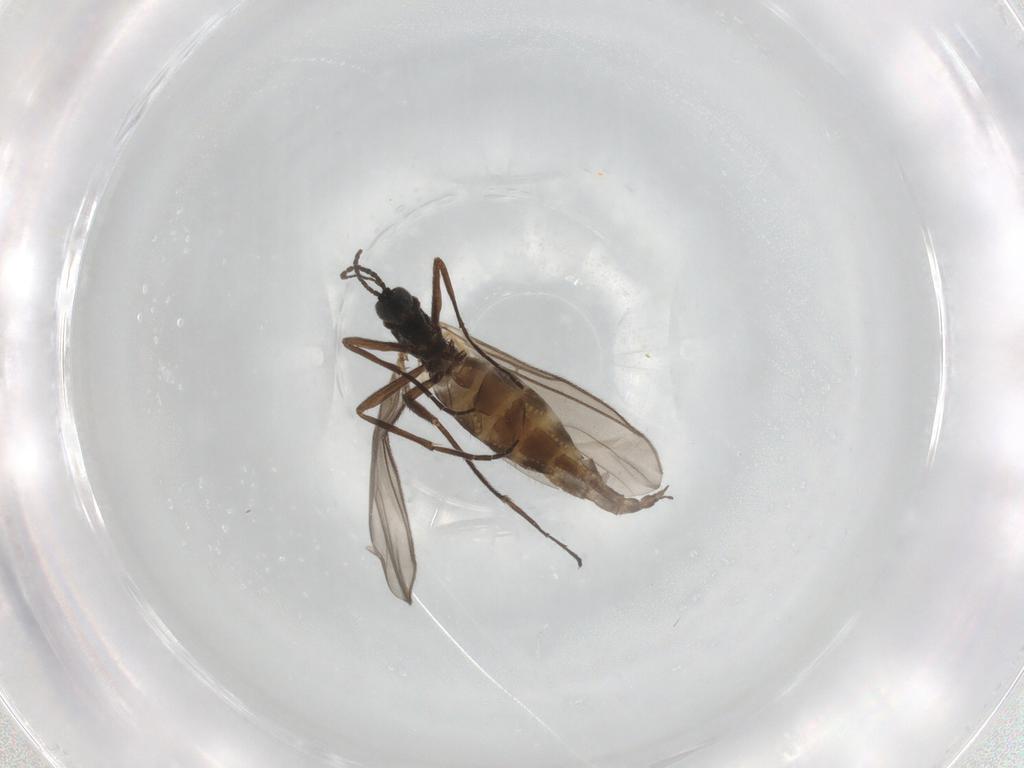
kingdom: Animalia
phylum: Arthropoda
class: Insecta
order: Diptera
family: Sciaridae
